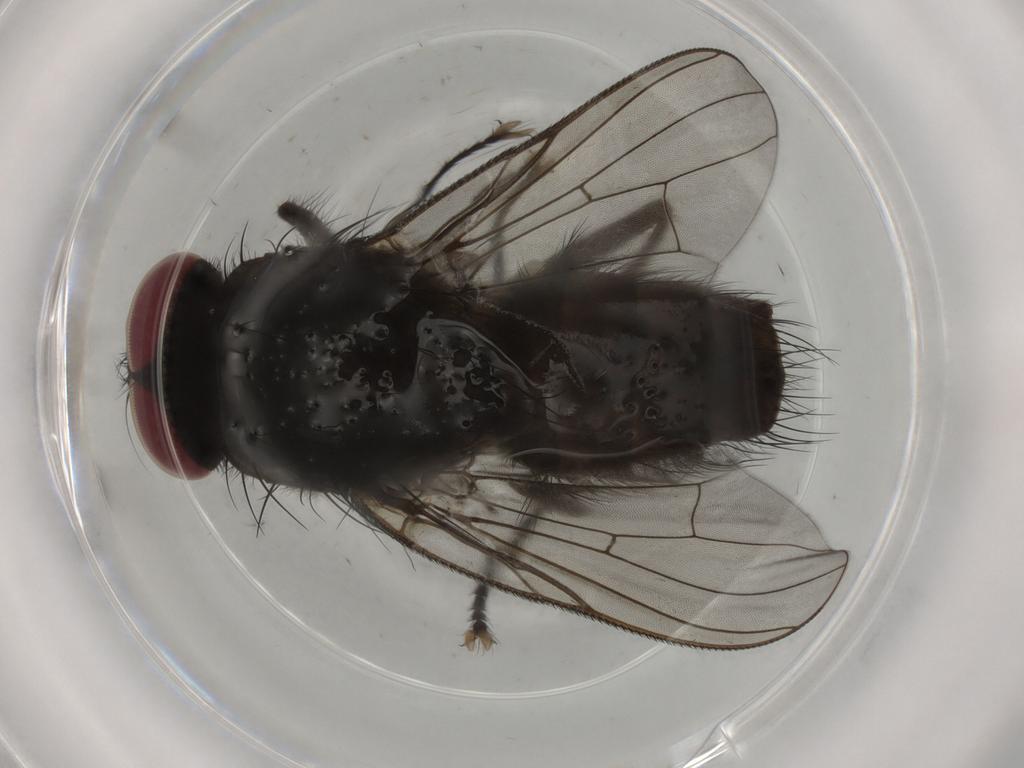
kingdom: Animalia
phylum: Arthropoda
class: Insecta
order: Diptera
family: Muscidae
